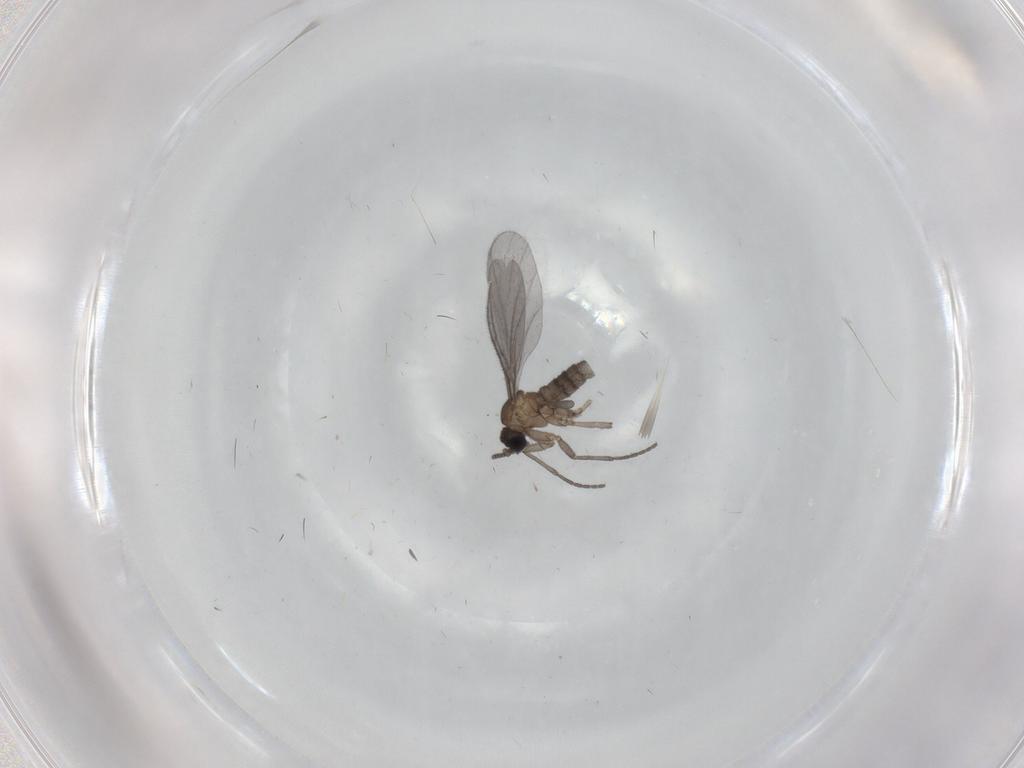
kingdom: Animalia
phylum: Arthropoda
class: Insecta
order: Diptera
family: Sciaridae
